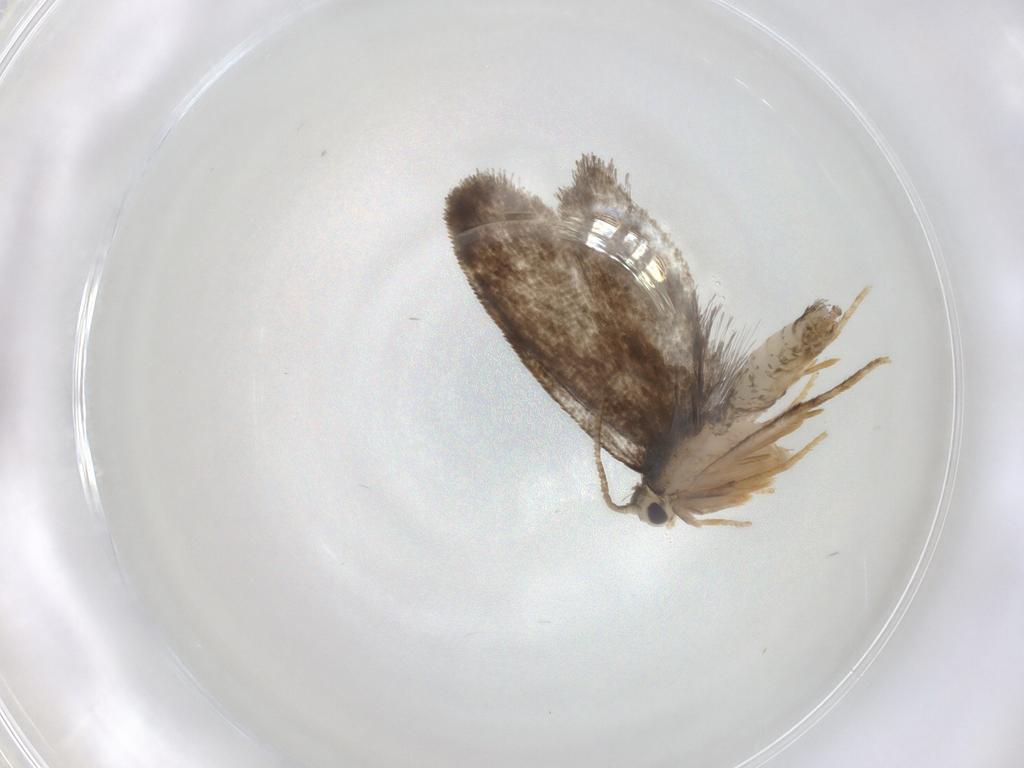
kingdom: Animalia
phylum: Arthropoda
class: Insecta
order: Lepidoptera
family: Psychidae
